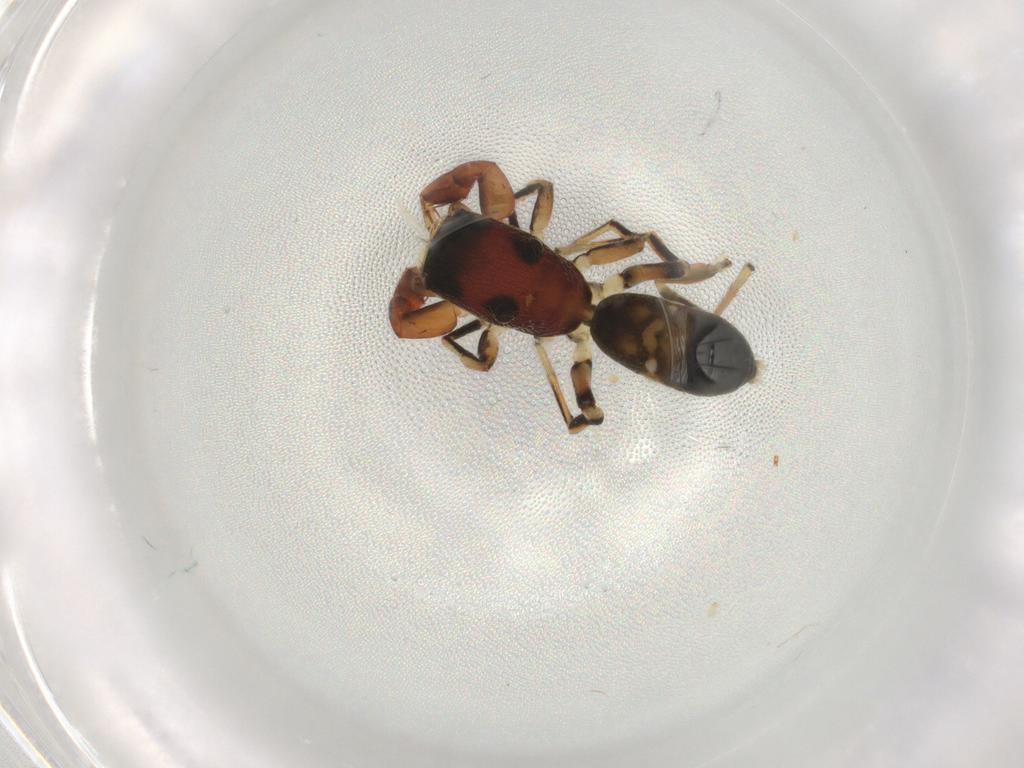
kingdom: Animalia
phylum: Arthropoda
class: Arachnida
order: Araneae
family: Salticidae
